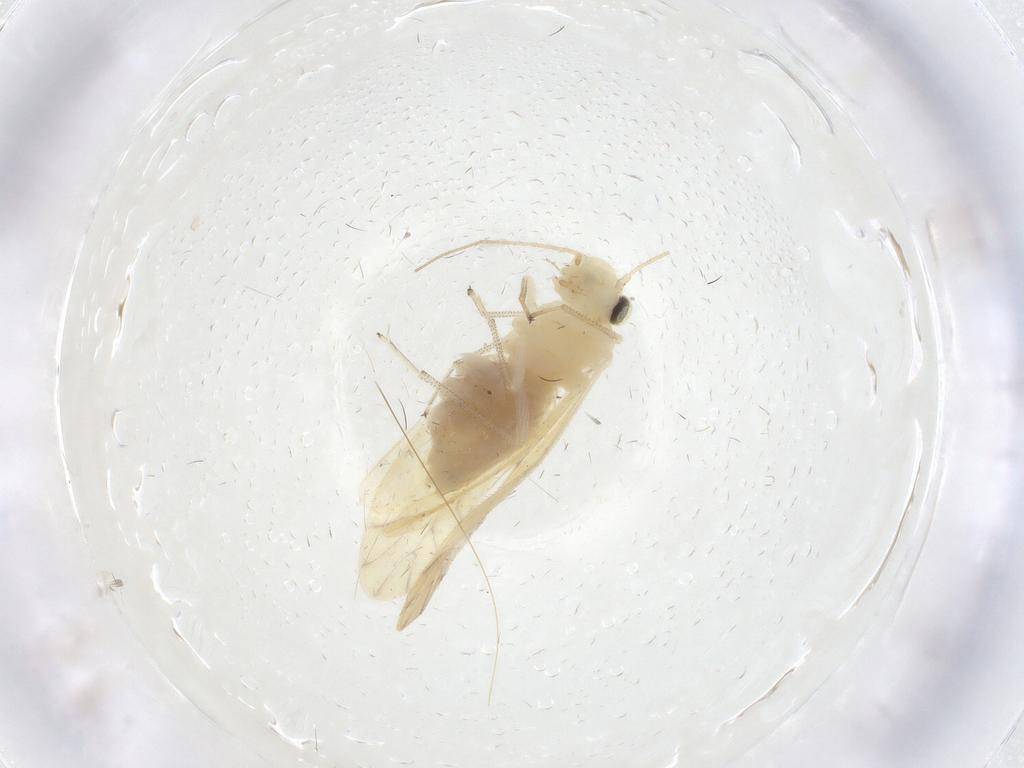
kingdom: Animalia
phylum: Arthropoda
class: Insecta
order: Psocodea
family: Caeciliusidae
